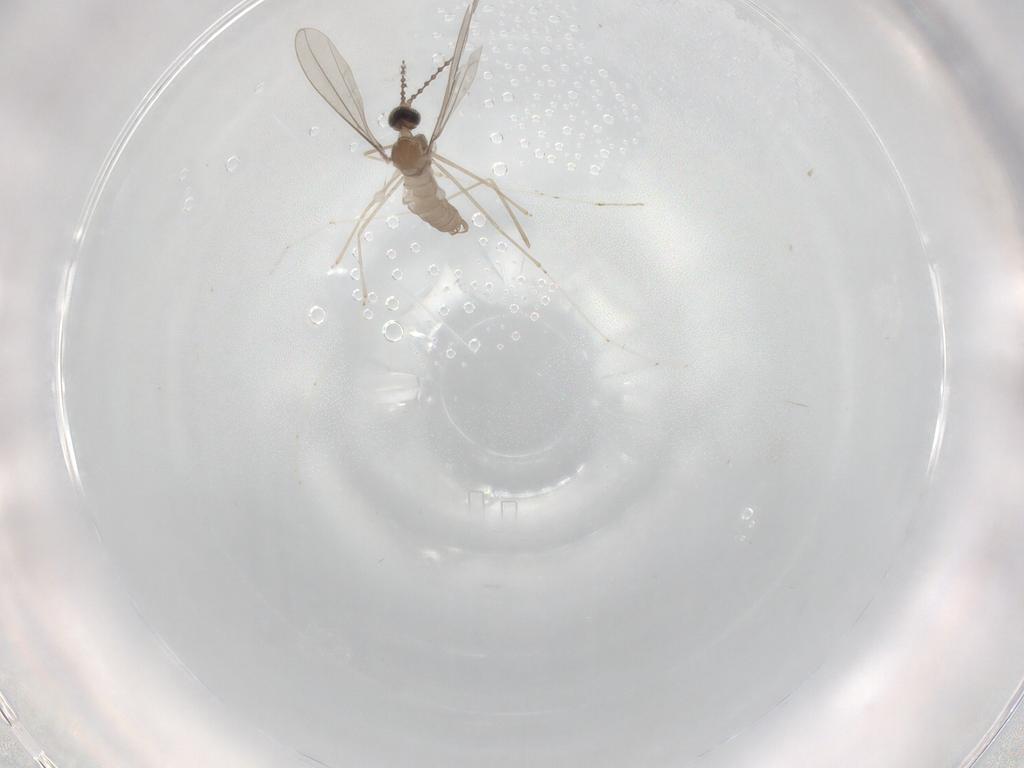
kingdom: Animalia
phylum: Arthropoda
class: Insecta
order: Diptera
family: Cecidomyiidae
